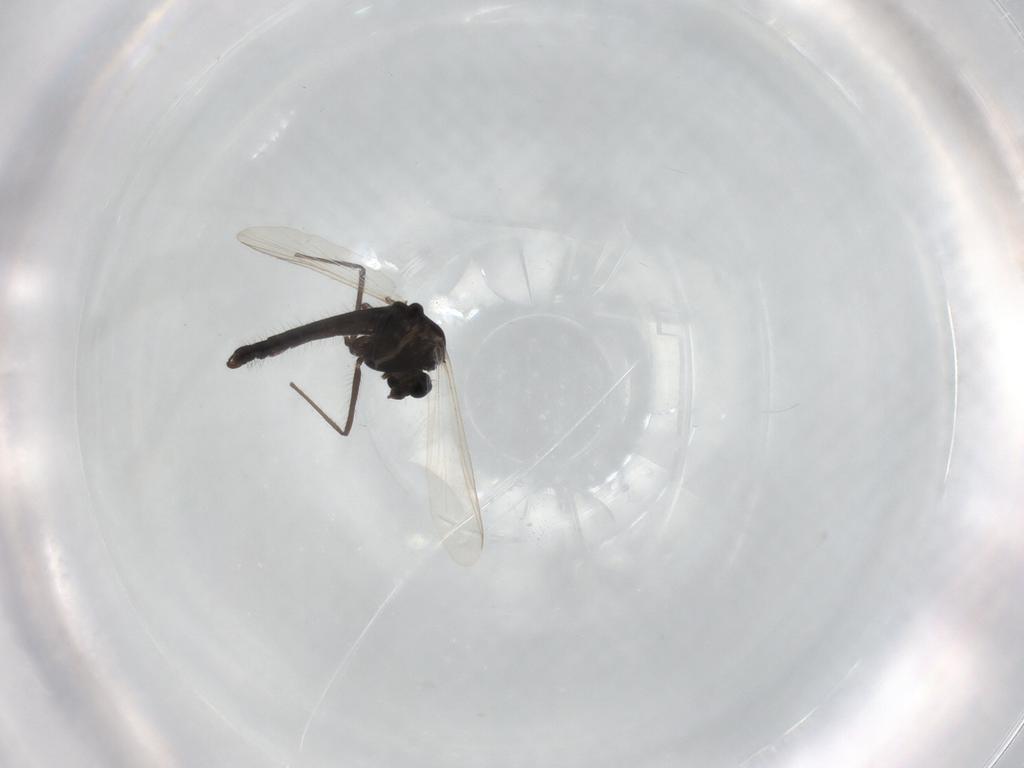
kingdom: Animalia
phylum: Arthropoda
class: Insecta
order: Diptera
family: Chironomidae
